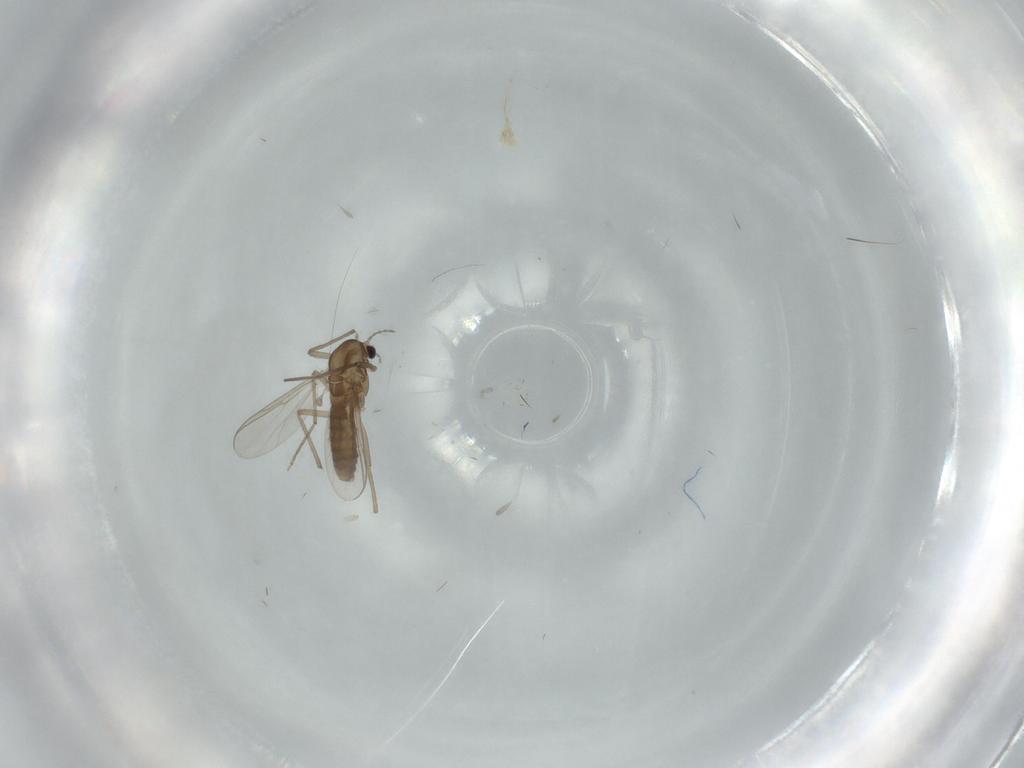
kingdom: Animalia
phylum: Arthropoda
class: Insecta
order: Diptera
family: Chironomidae
